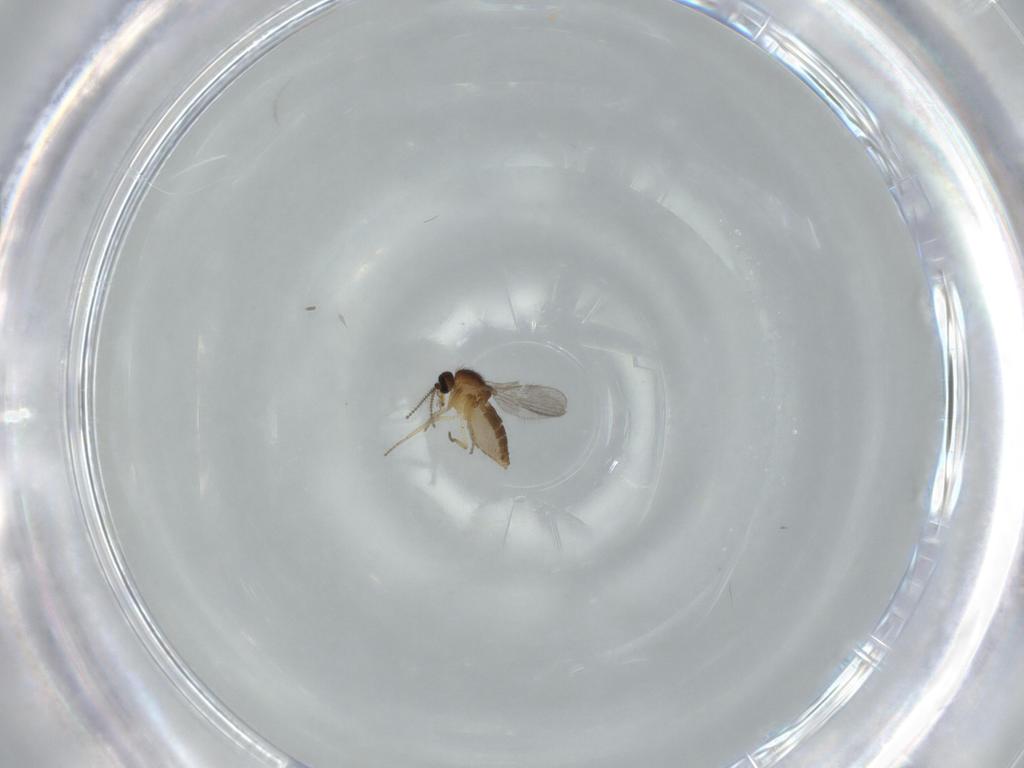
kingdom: Animalia
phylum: Arthropoda
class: Insecta
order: Diptera
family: Ceratopogonidae
